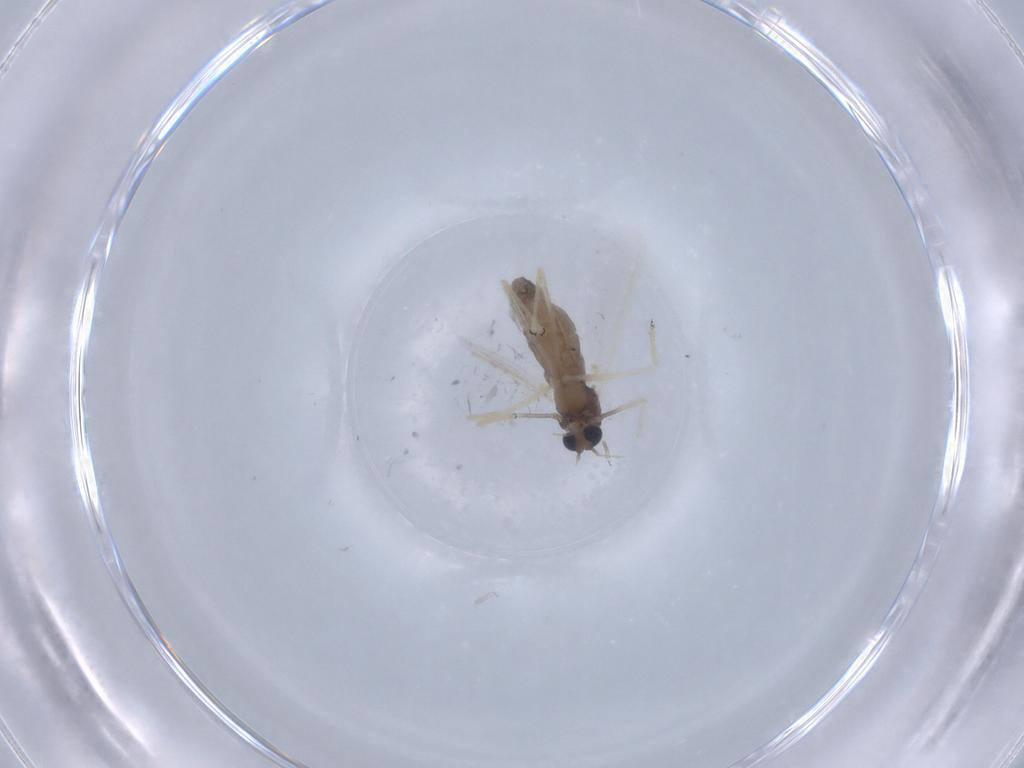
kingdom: Animalia
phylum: Arthropoda
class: Insecta
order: Diptera
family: Chironomidae
